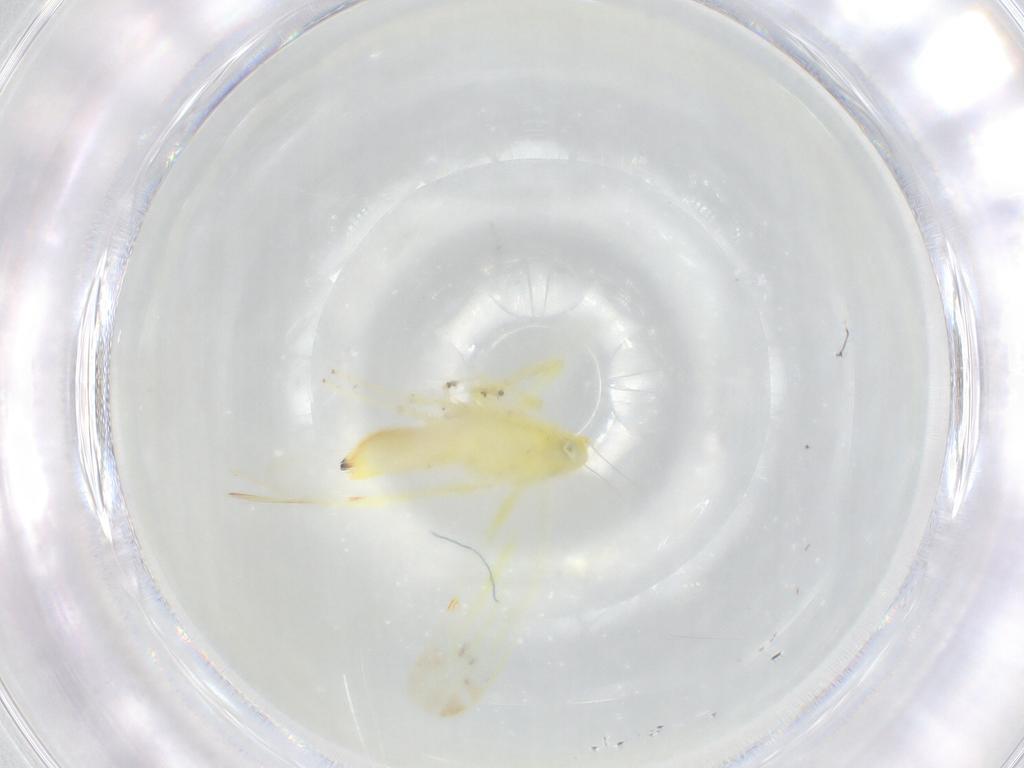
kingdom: Animalia
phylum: Arthropoda
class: Insecta
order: Hemiptera
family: Cicadellidae
